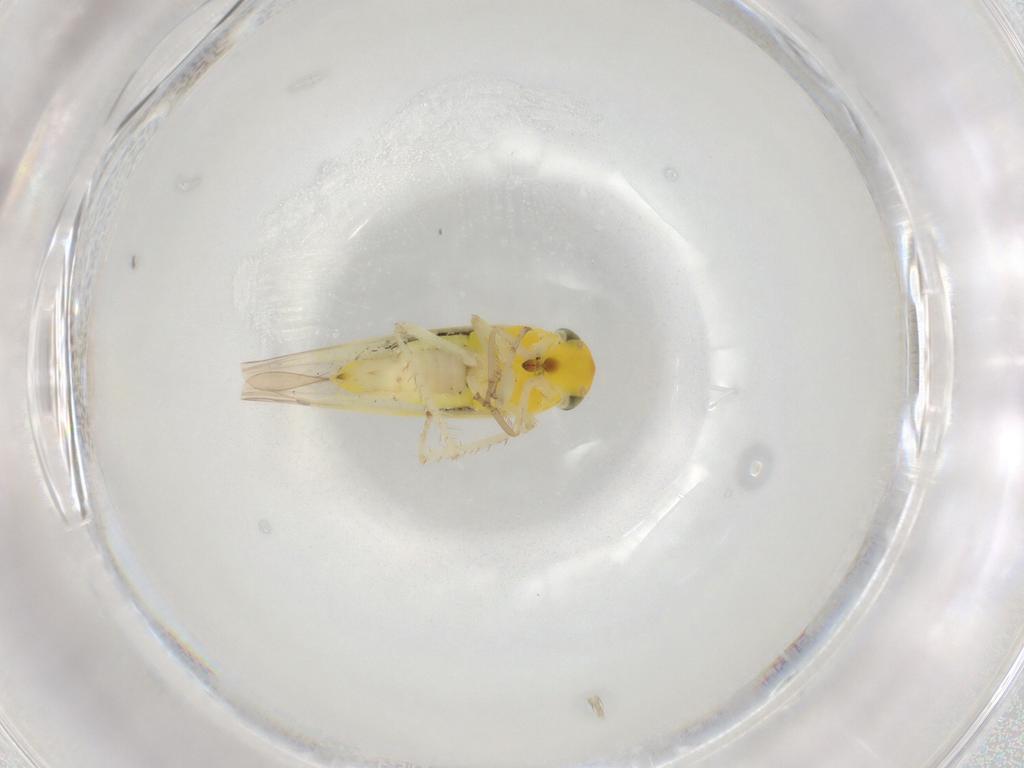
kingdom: Animalia
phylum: Arthropoda
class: Insecta
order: Hemiptera
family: Cicadellidae
